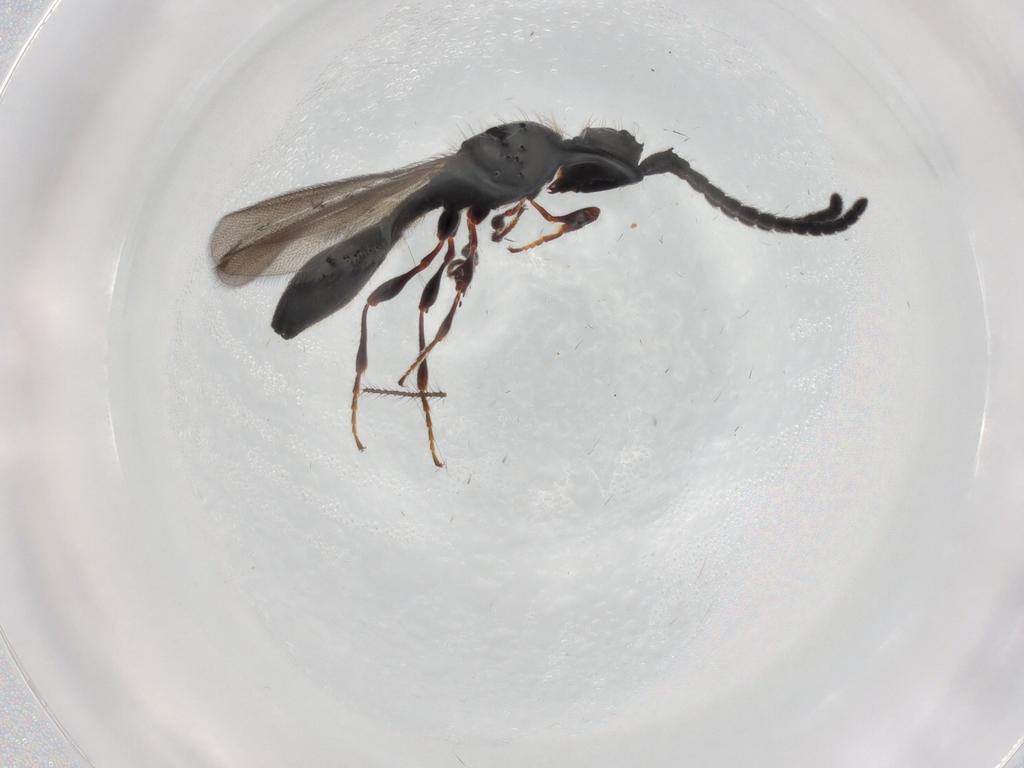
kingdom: Animalia
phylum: Arthropoda
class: Insecta
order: Hymenoptera
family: Diapriidae
